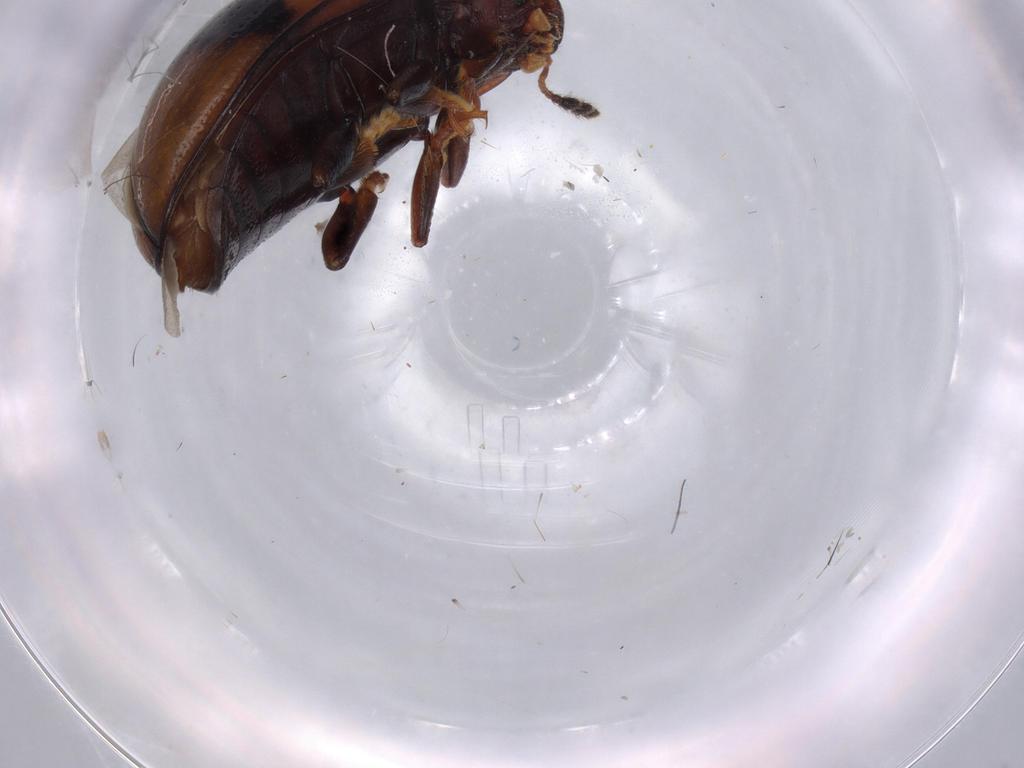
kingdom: Animalia
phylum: Arthropoda
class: Insecta
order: Coleoptera
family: Erotylidae
